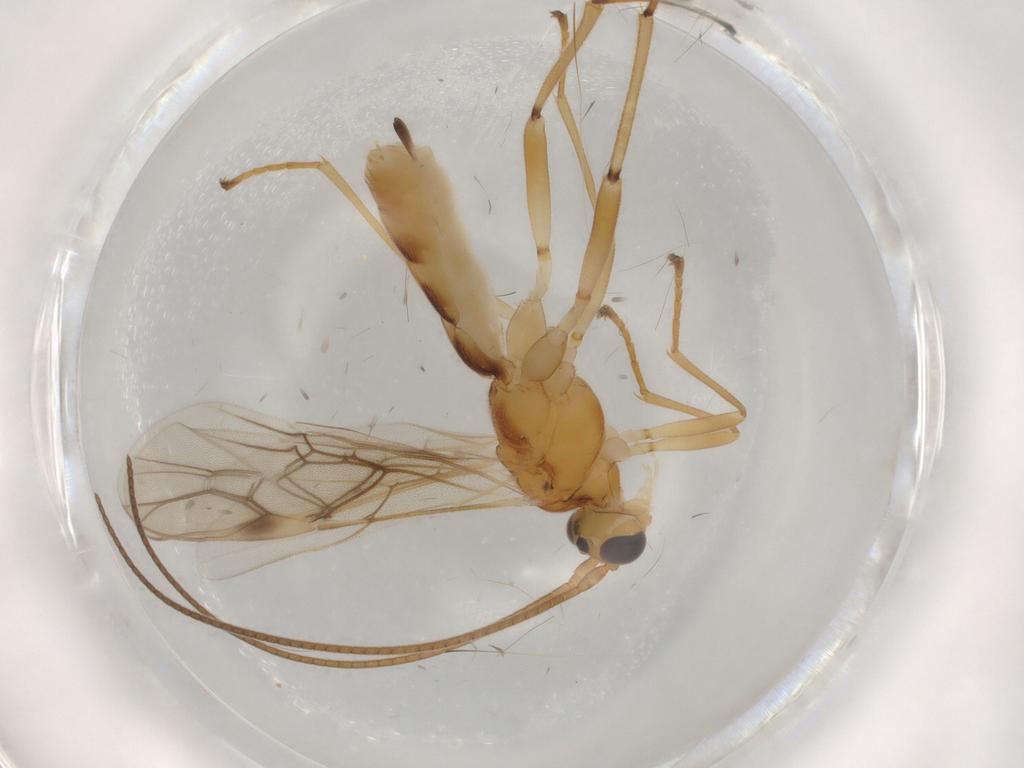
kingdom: Animalia
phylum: Arthropoda
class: Insecta
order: Hymenoptera
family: Braconidae
